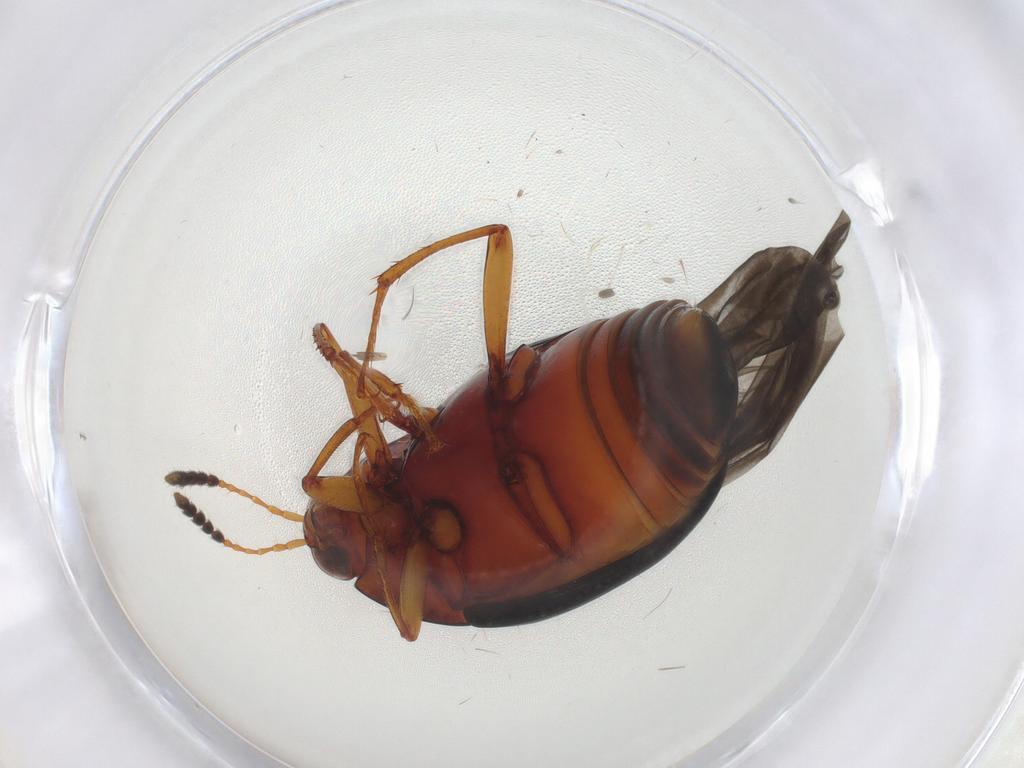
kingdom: Animalia
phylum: Arthropoda
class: Insecta
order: Coleoptera
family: Staphylinidae
